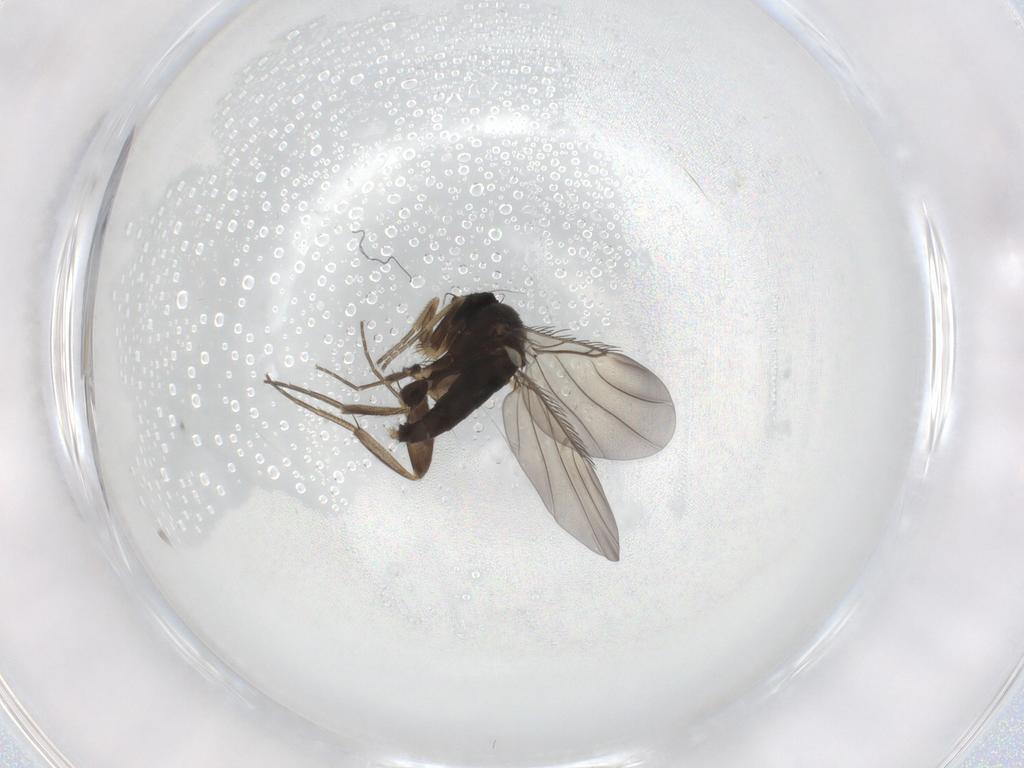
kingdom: Animalia
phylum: Arthropoda
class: Insecta
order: Diptera
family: Phoridae
